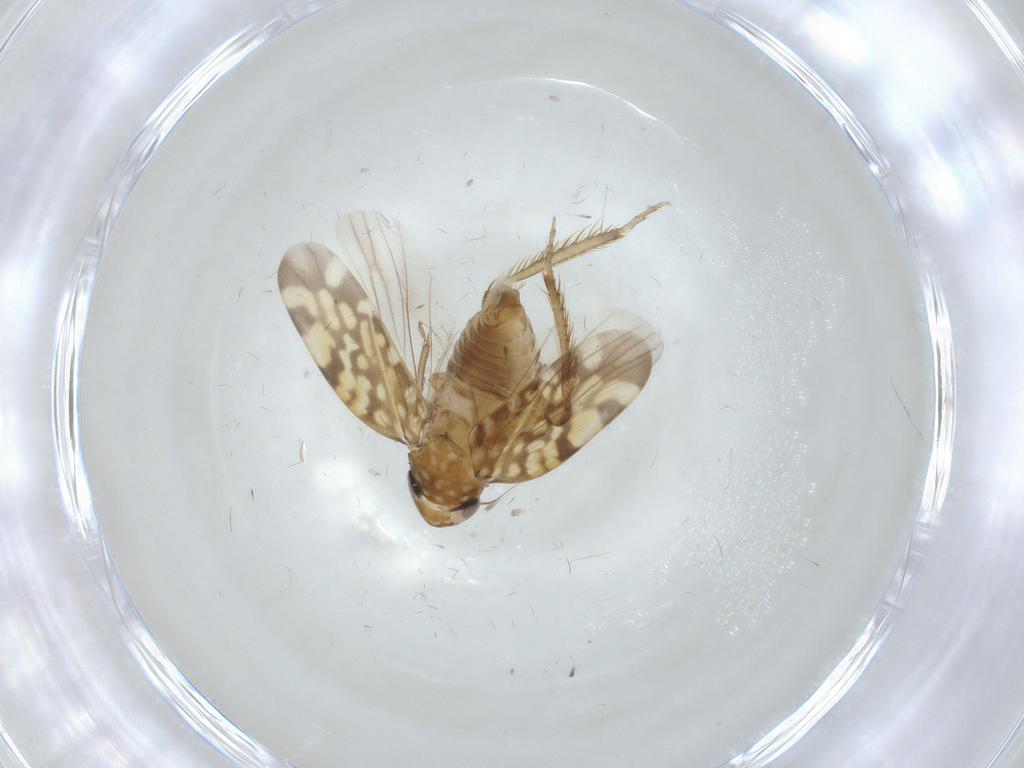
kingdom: Animalia
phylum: Arthropoda
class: Insecta
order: Hemiptera
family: Cicadellidae
